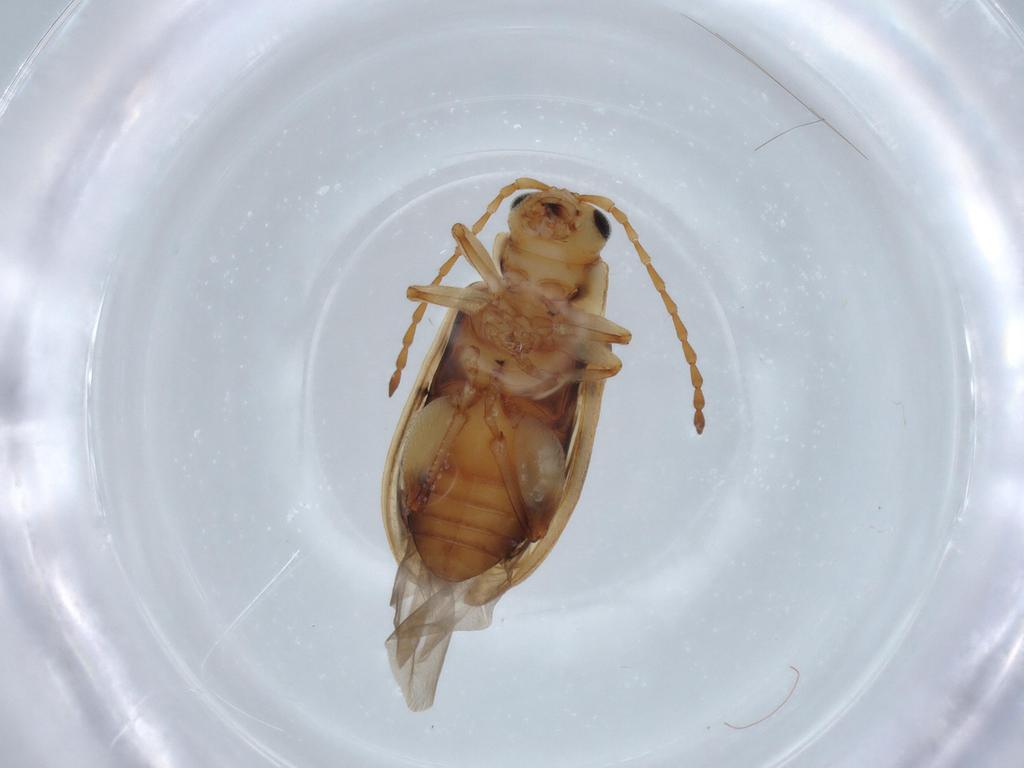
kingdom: Animalia
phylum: Arthropoda
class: Insecta
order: Coleoptera
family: Chrysomelidae
